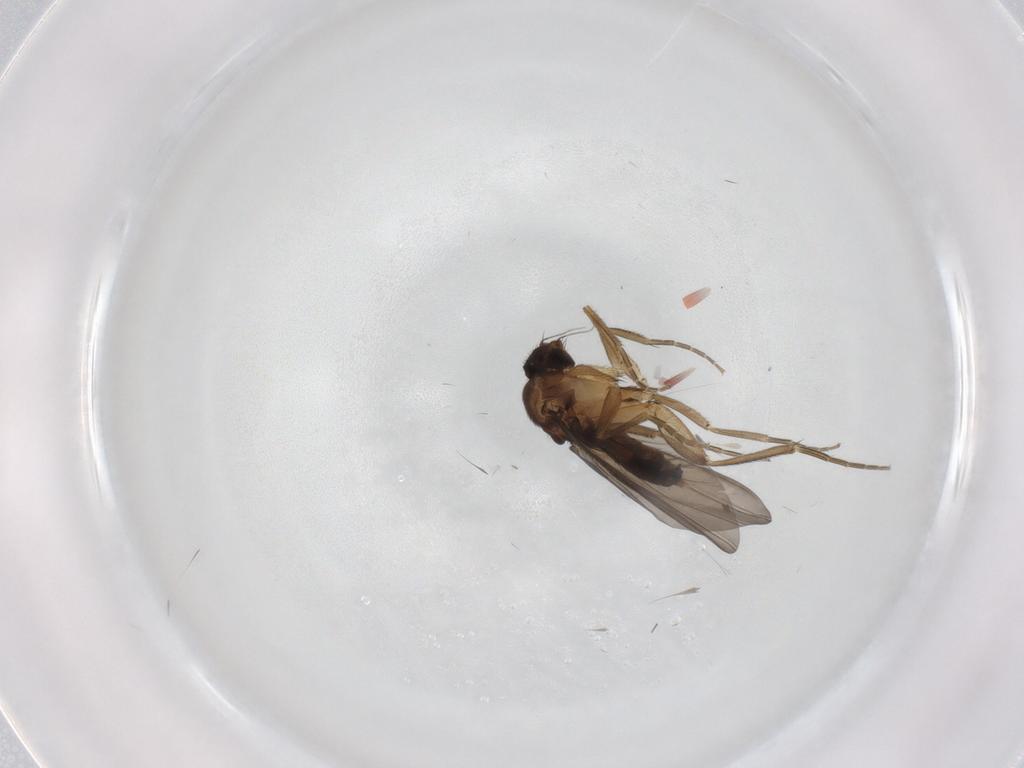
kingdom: Animalia
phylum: Arthropoda
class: Insecta
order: Diptera
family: Phoridae
